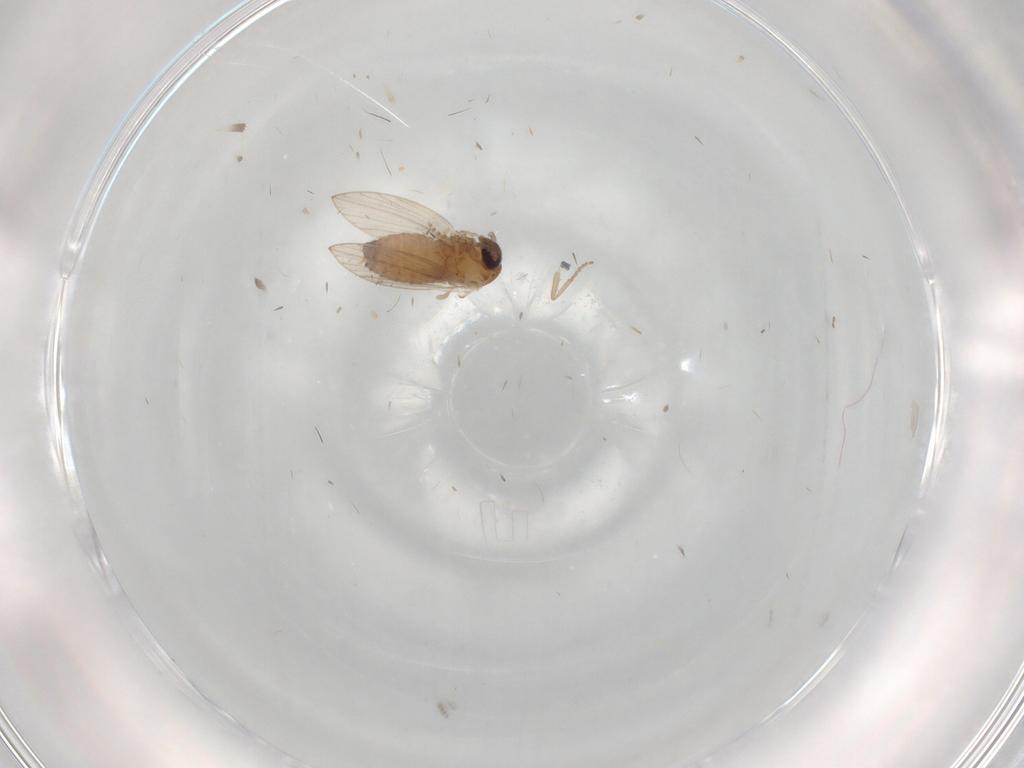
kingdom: Animalia
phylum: Arthropoda
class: Insecta
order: Diptera
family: Psychodidae
